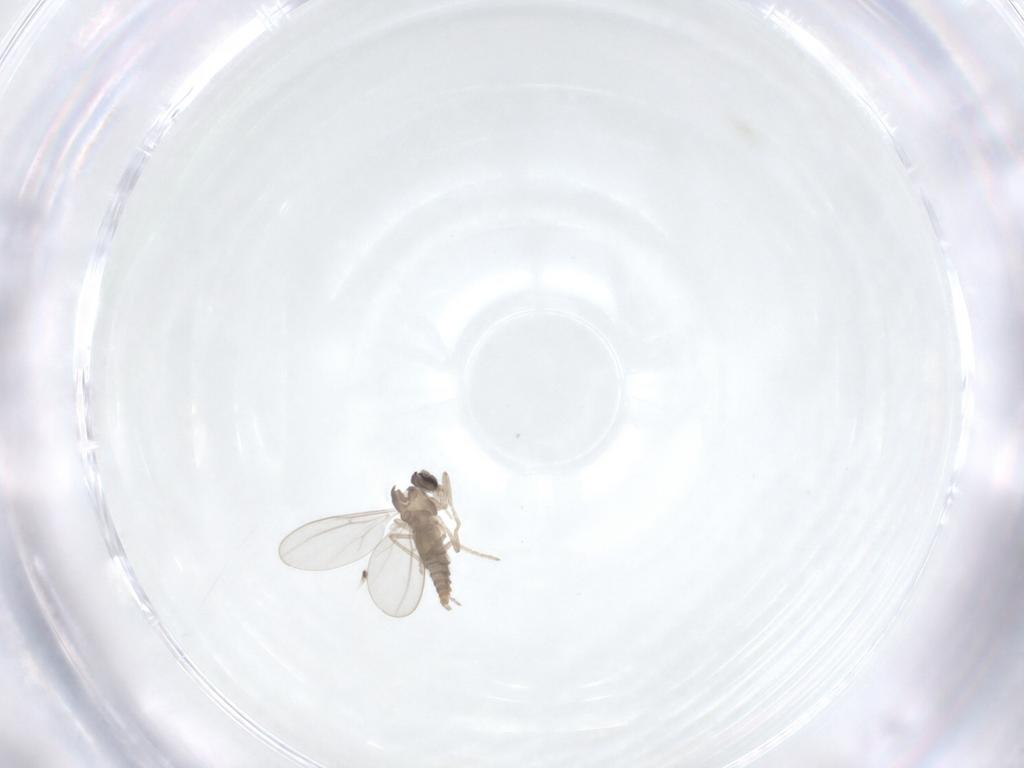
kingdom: Animalia
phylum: Arthropoda
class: Insecta
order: Diptera
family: Cecidomyiidae
